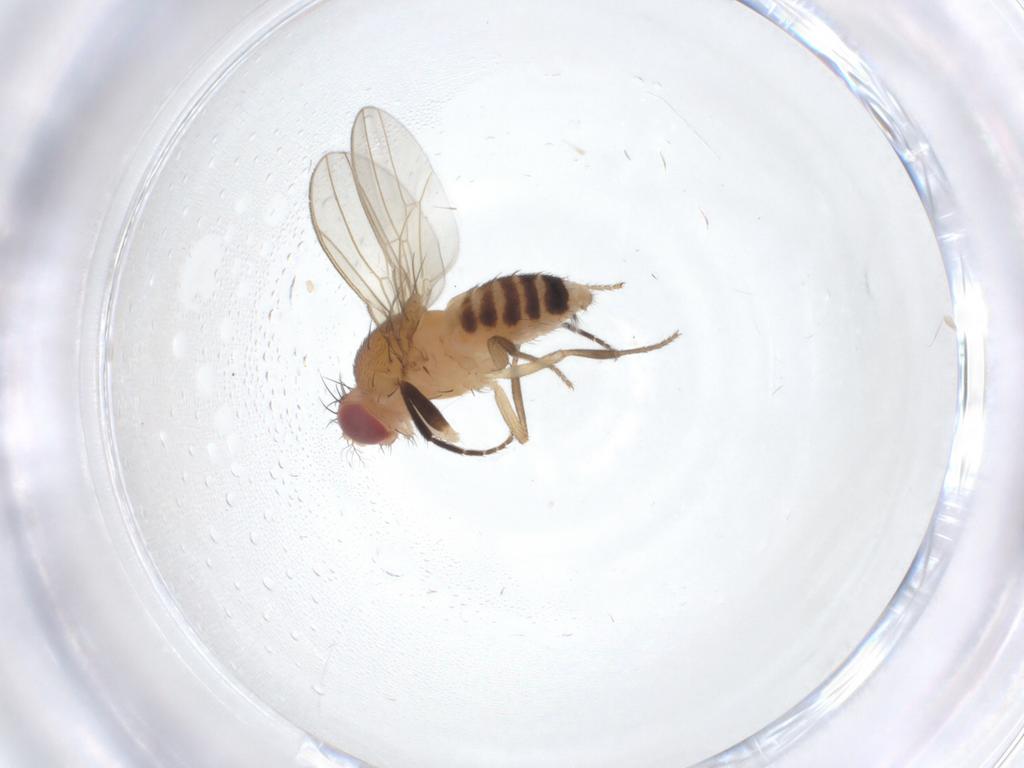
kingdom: Animalia
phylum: Arthropoda
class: Insecta
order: Diptera
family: Drosophilidae
